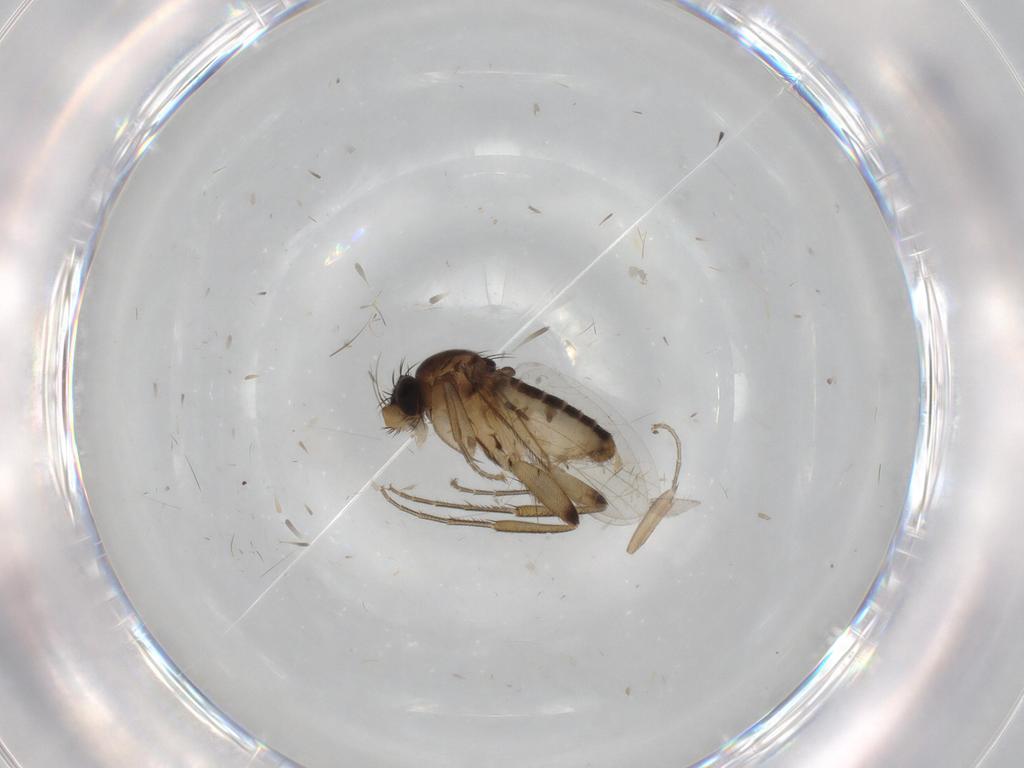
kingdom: Animalia
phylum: Arthropoda
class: Insecta
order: Diptera
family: Phoridae
